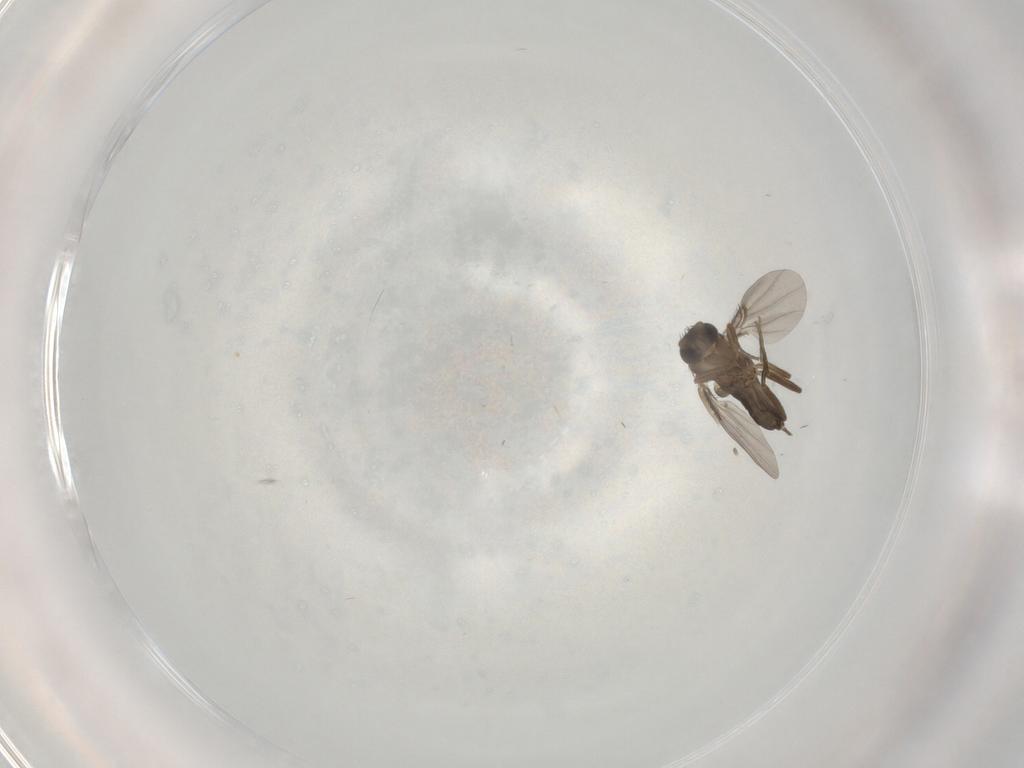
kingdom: Animalia
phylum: Arthropoda
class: Insecta
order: Diptera
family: Phoridae
